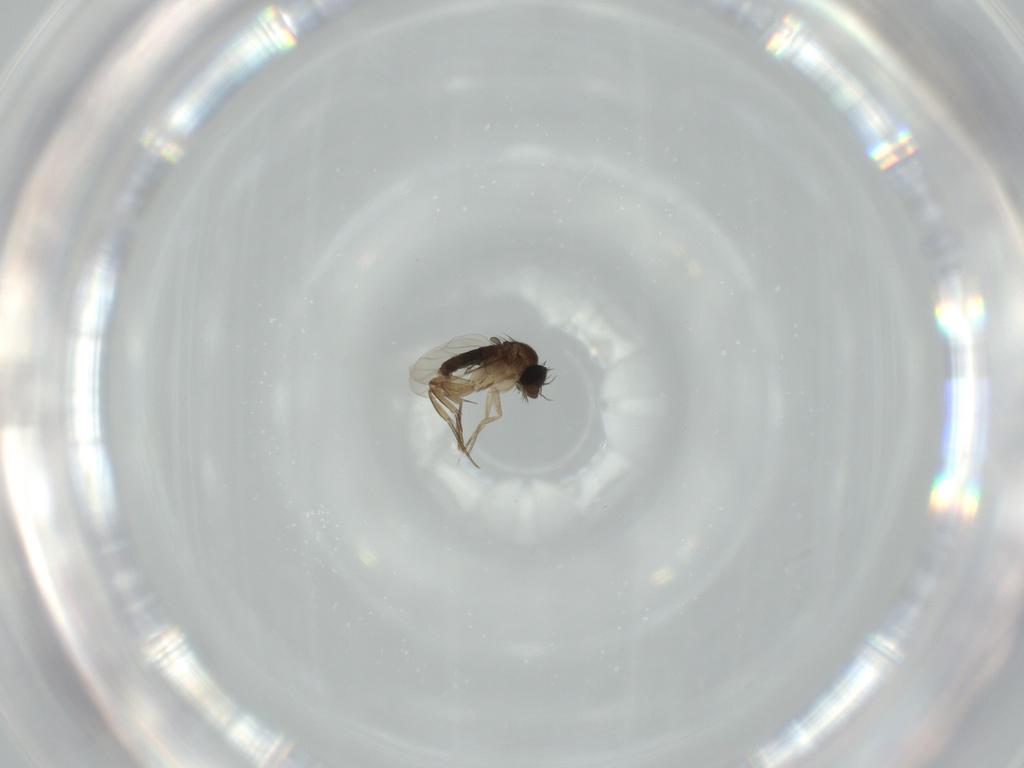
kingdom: Animalia
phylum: Arthropoda
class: Insecta
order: Diptera
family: Phoridae
